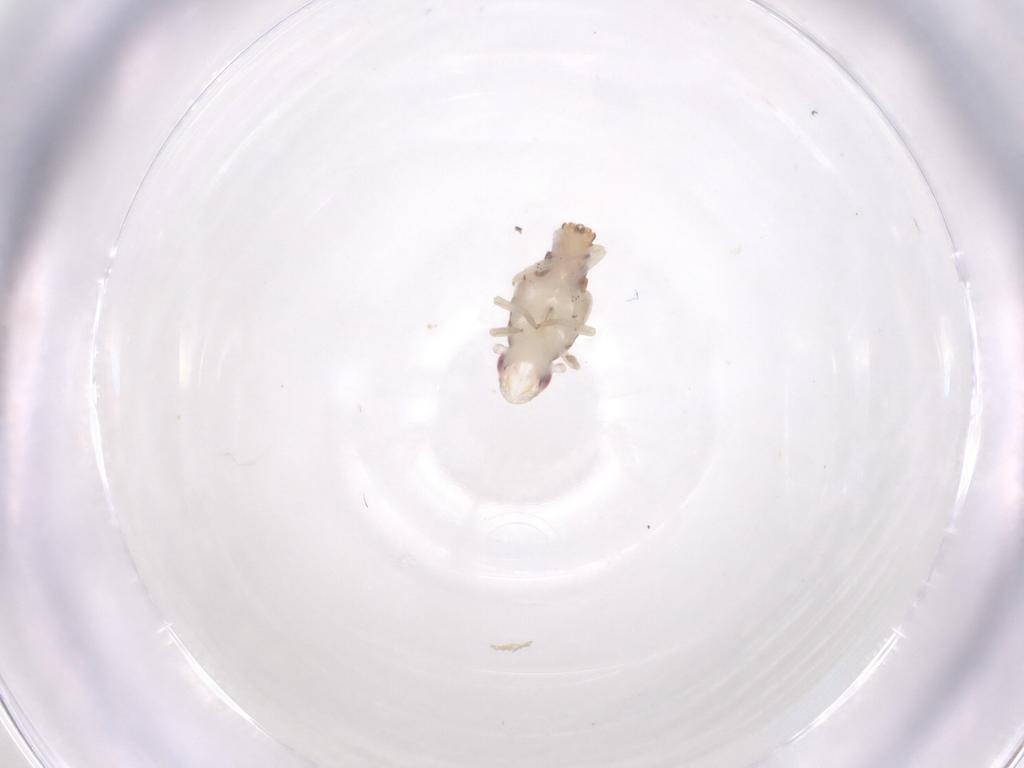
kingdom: Animalia
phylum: Arthropoda
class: Insecta
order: Hemiptera
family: Tropiduchidae
